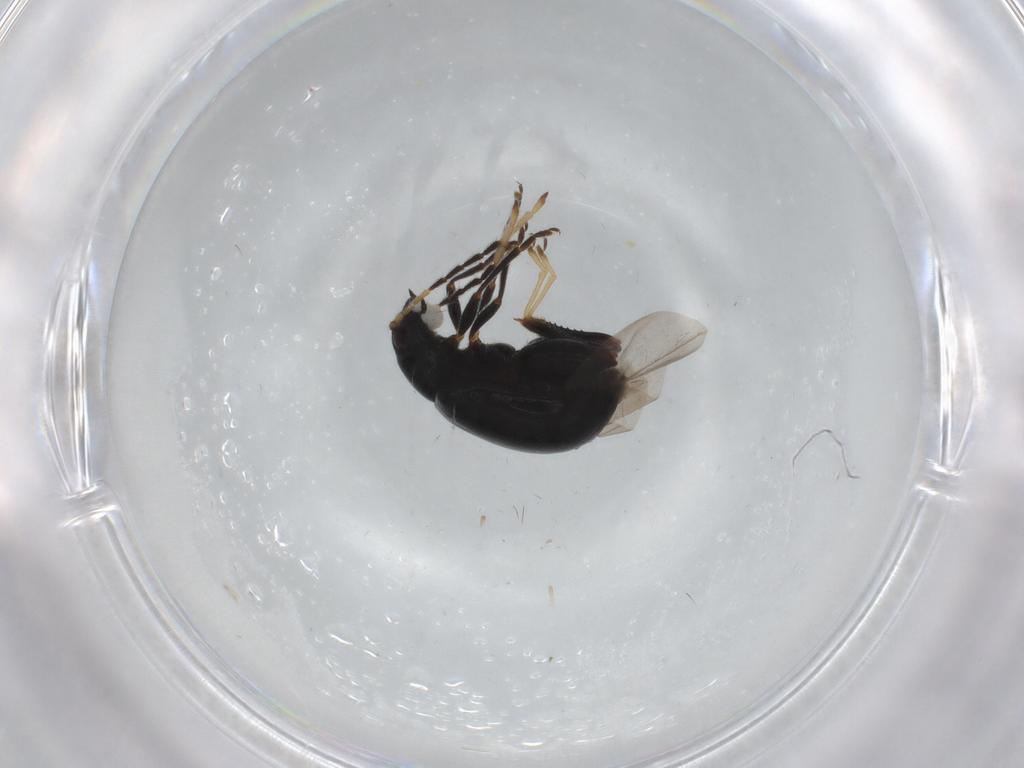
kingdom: Animalia
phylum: Arthropoda
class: Insecta
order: Coleoptera
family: Chrysomelidae
